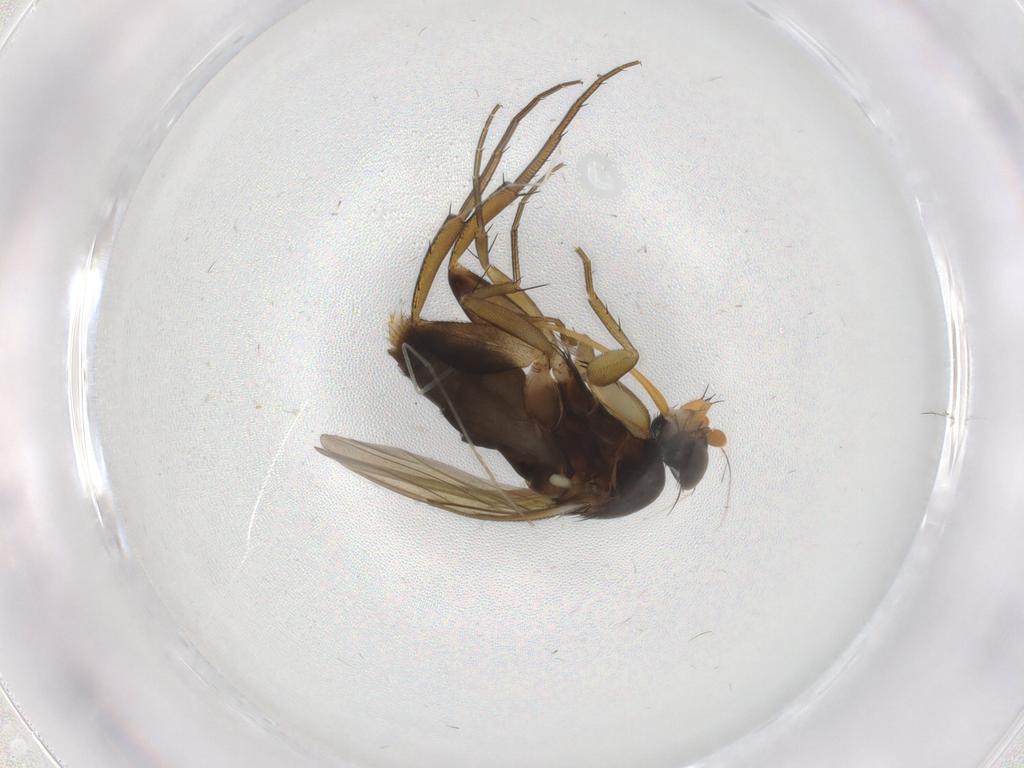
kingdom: Animalia
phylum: Arthropoda
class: Insecta
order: Diptera
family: Phoridae
